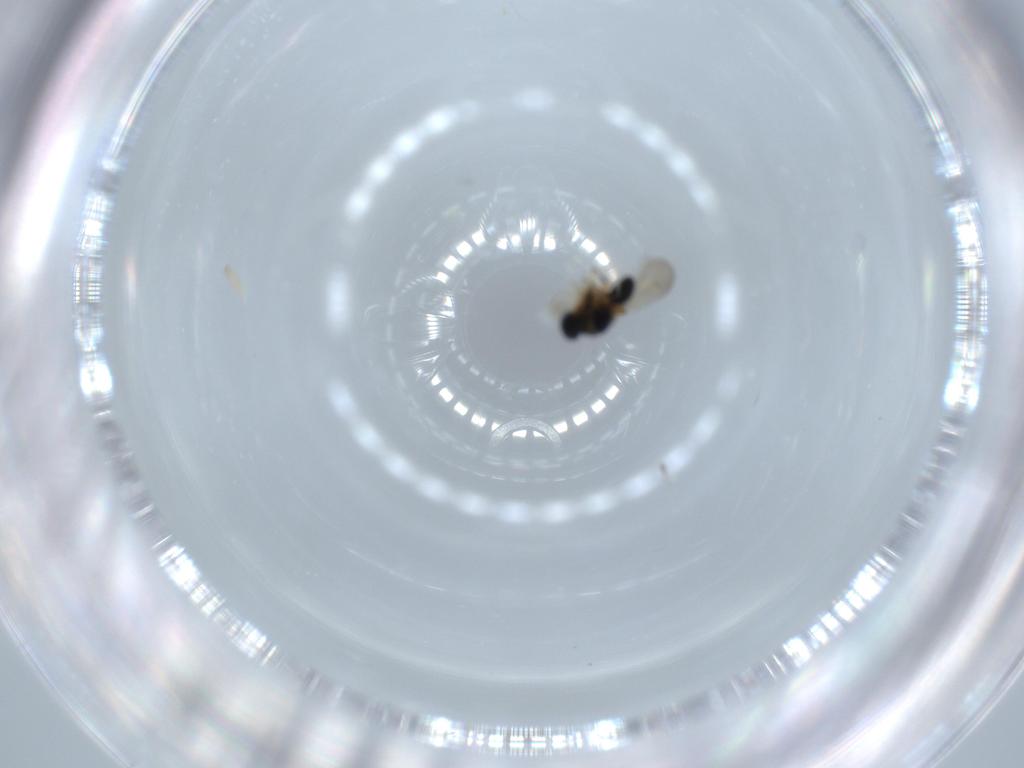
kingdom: Animalia
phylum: Arthropoda
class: Insecta
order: Hymenoptera
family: Platygastridae
